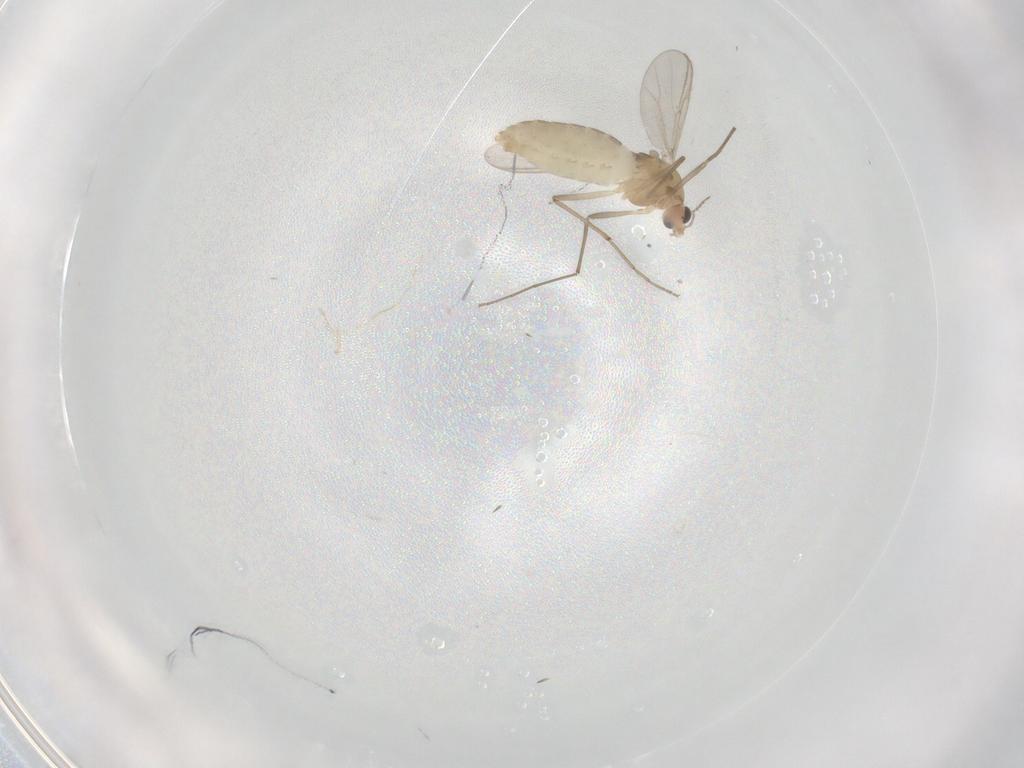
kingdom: Animalia
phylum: Arthropoda
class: Insecta
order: Diptera
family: Chironomidae
